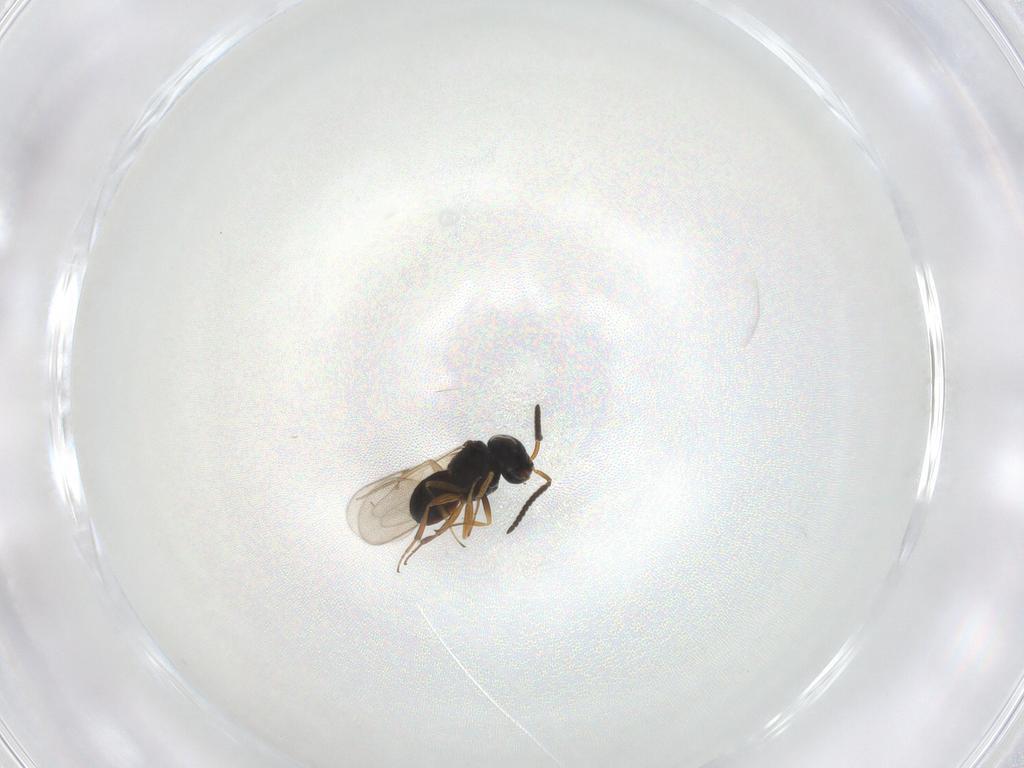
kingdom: Animalia
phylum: Arthropoda
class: Insecta
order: Hymenoptera
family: Scelionidae
